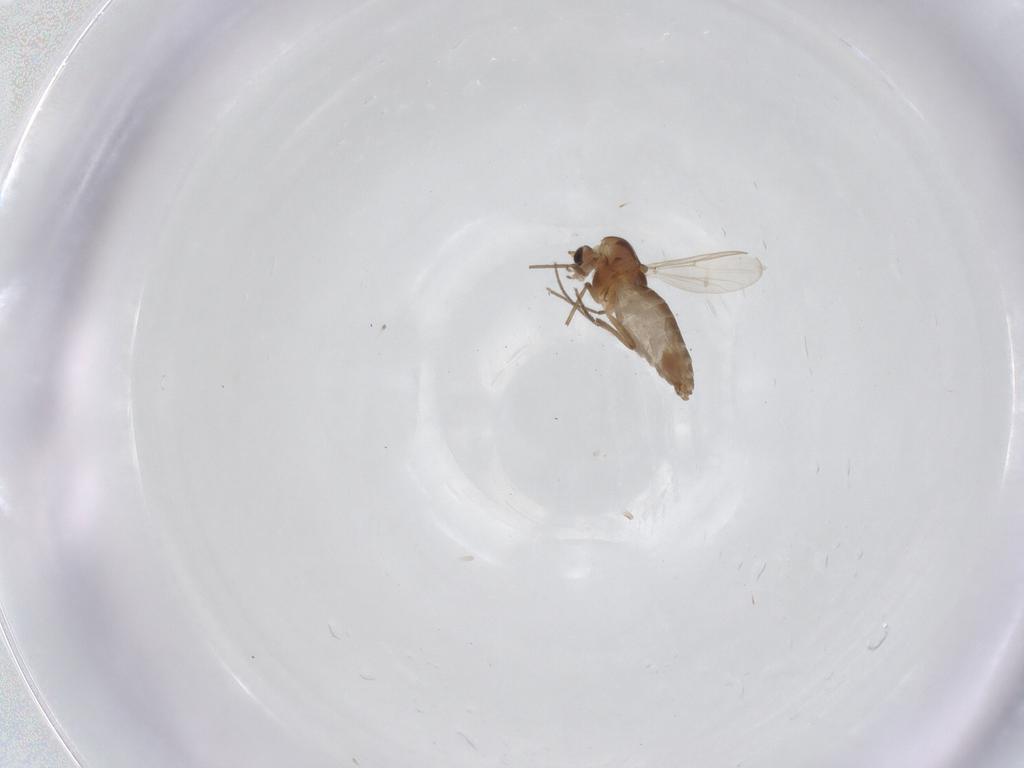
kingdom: Animalia
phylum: Arthropoda
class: Insecta
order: Diptera
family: Chironomidae
